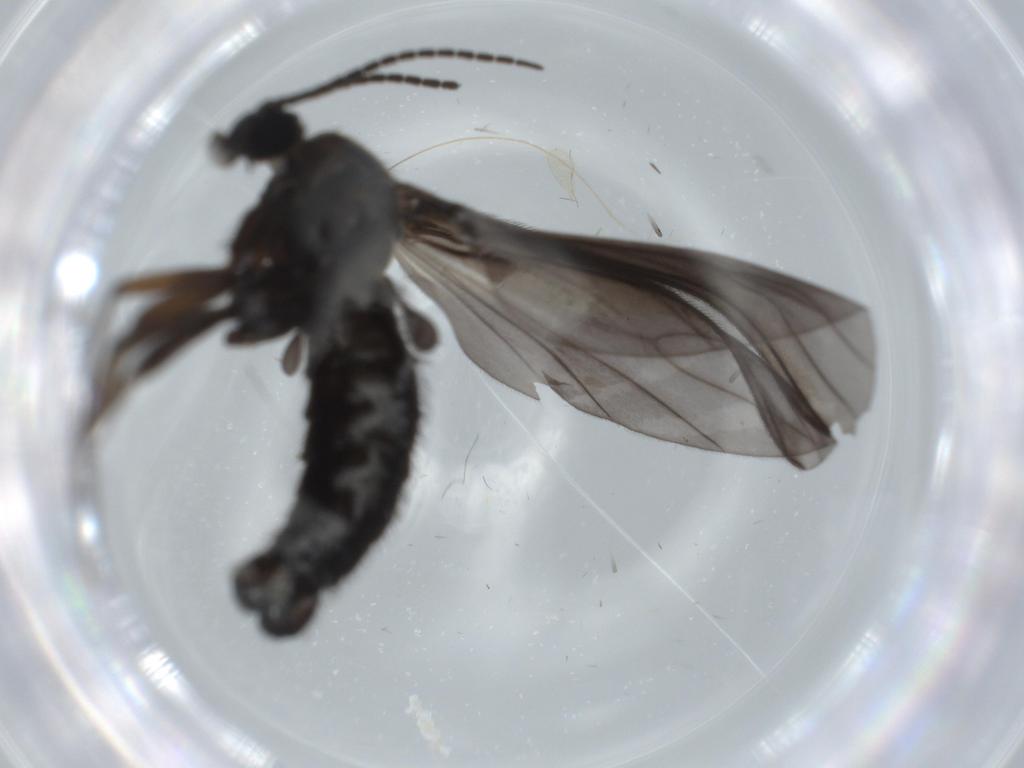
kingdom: Animalia
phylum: Arthropoda
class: Insecta
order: Diptera
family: Sciaridae
